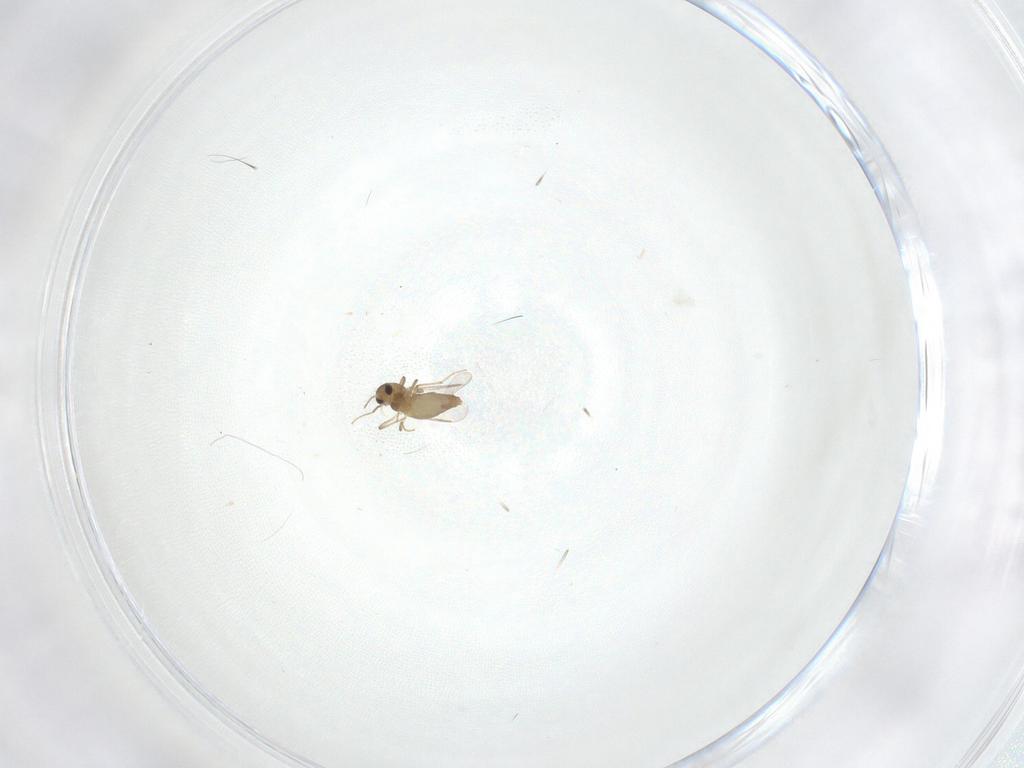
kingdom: Animalia
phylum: Arthropoda
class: Insecta
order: Diptera
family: Chironomidae
